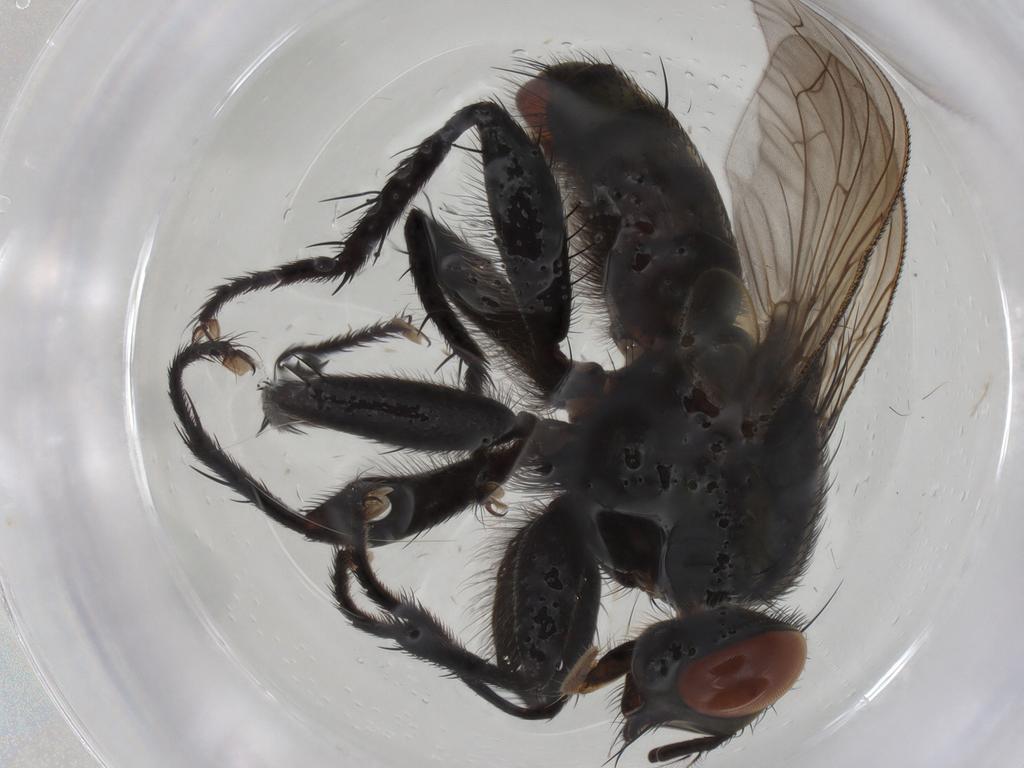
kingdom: Animalia
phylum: Arthropoda
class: Insecta
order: Diptera
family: Sarcophagidae
